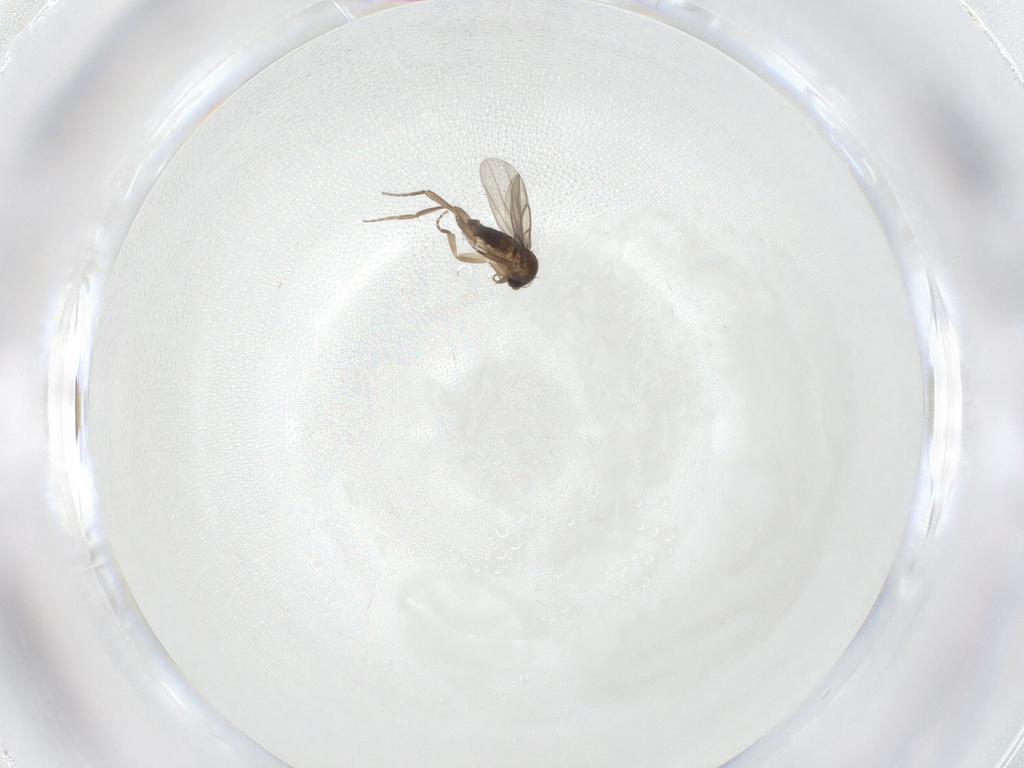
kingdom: Animalia
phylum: Arthropoda
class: Insecta
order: Diptera
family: Phoridae
